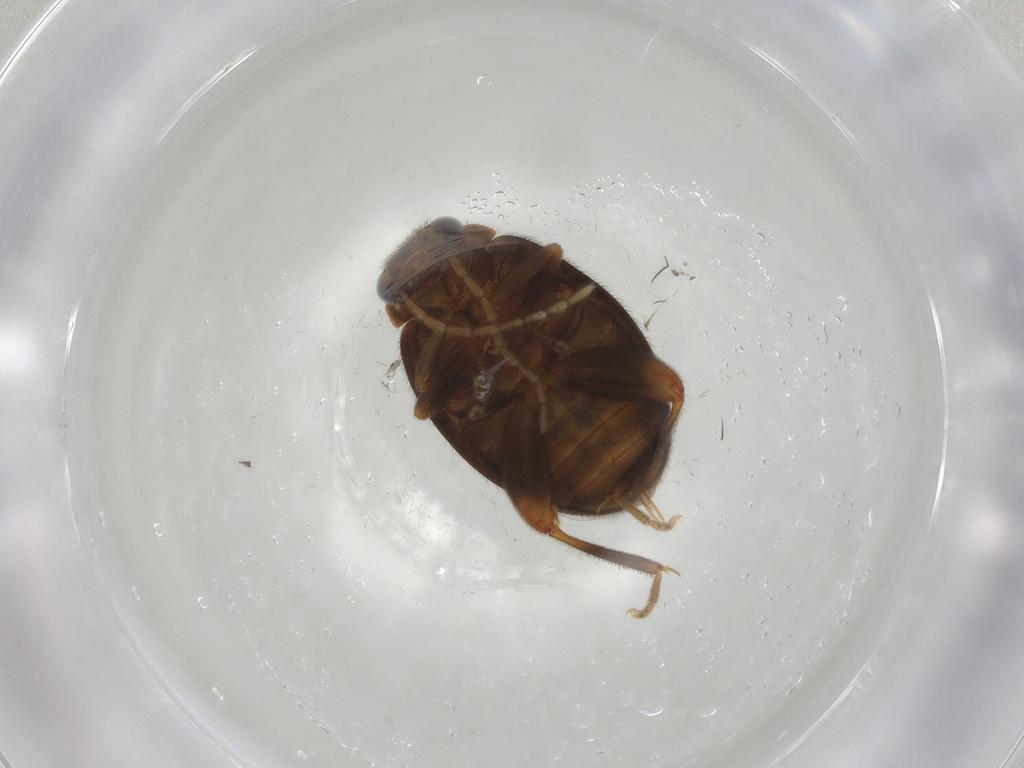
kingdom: Animalia
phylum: Arthropoda
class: Insecta
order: Coleoptera
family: Scirtidae
